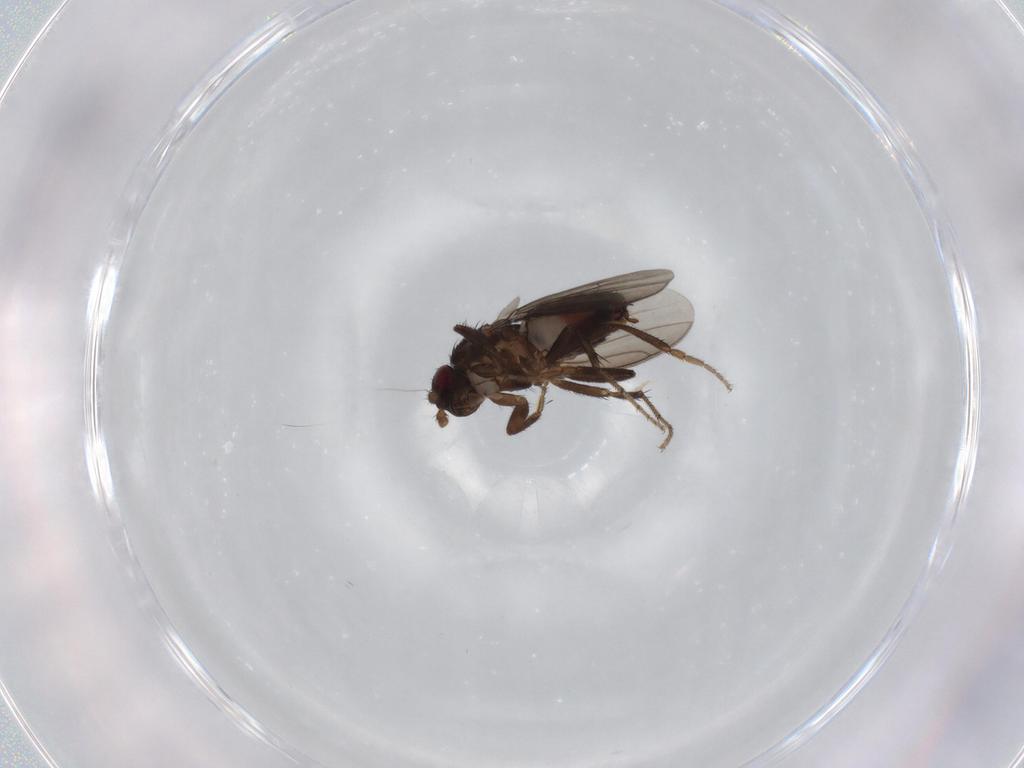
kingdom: Animalia
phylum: Arthropoda
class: Insecta
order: Diptera
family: Sphaeroceridae
